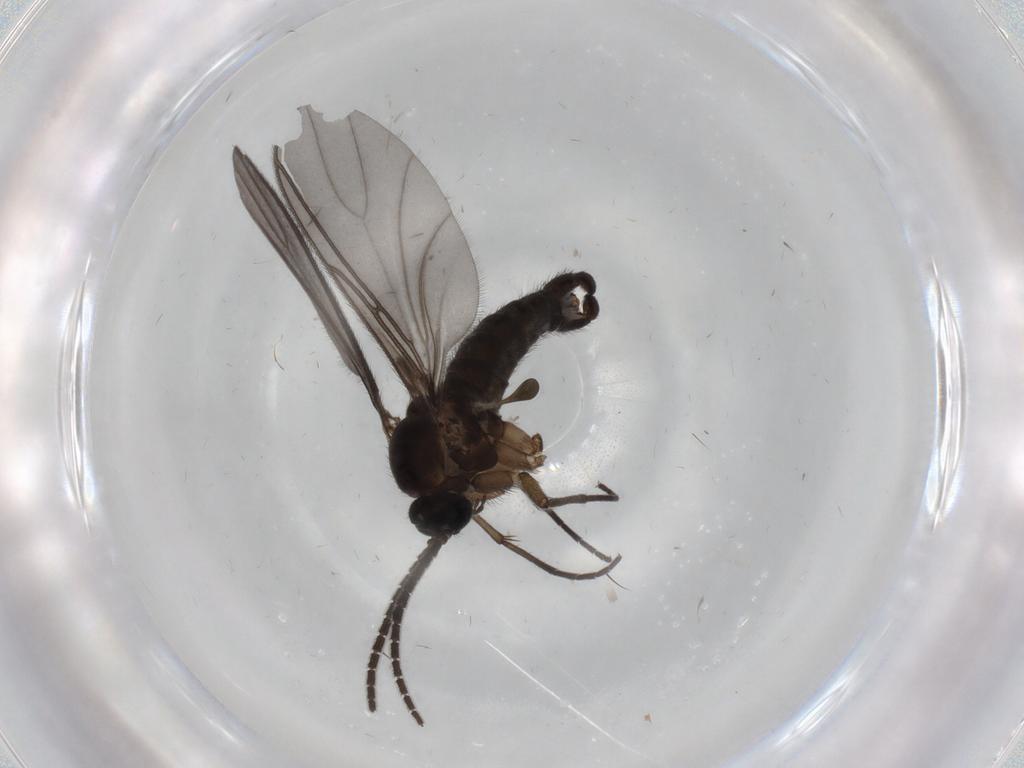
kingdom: Animalia
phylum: Arthropoda
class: Insecta
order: Diptera
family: Sciaridae
